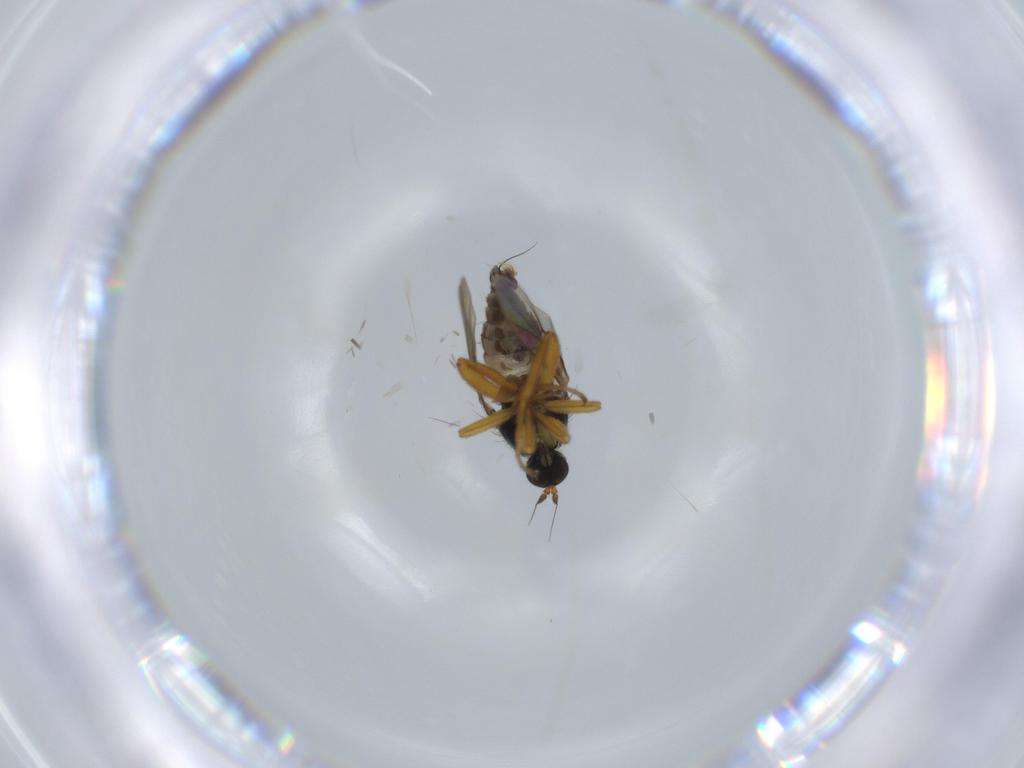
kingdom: Animalia
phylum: Arthropoda
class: Insecta
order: Diptera
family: Hybotidae
